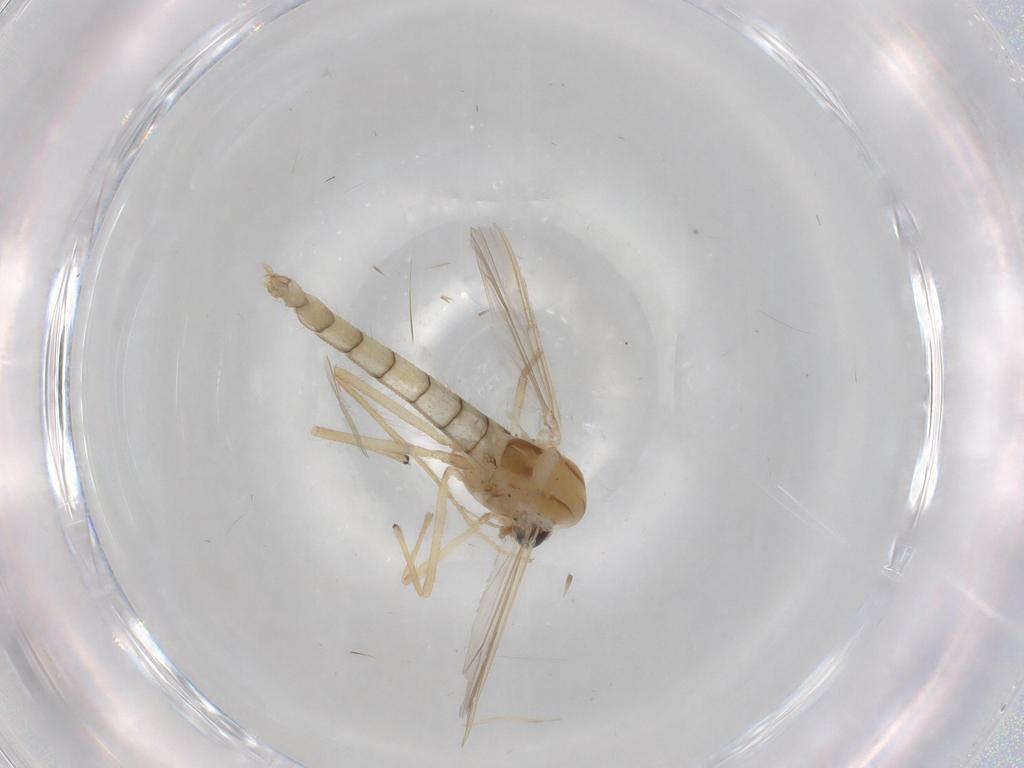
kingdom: Animalia
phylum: Arthropoda
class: Insecta
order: Diptera
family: Chironomidae
